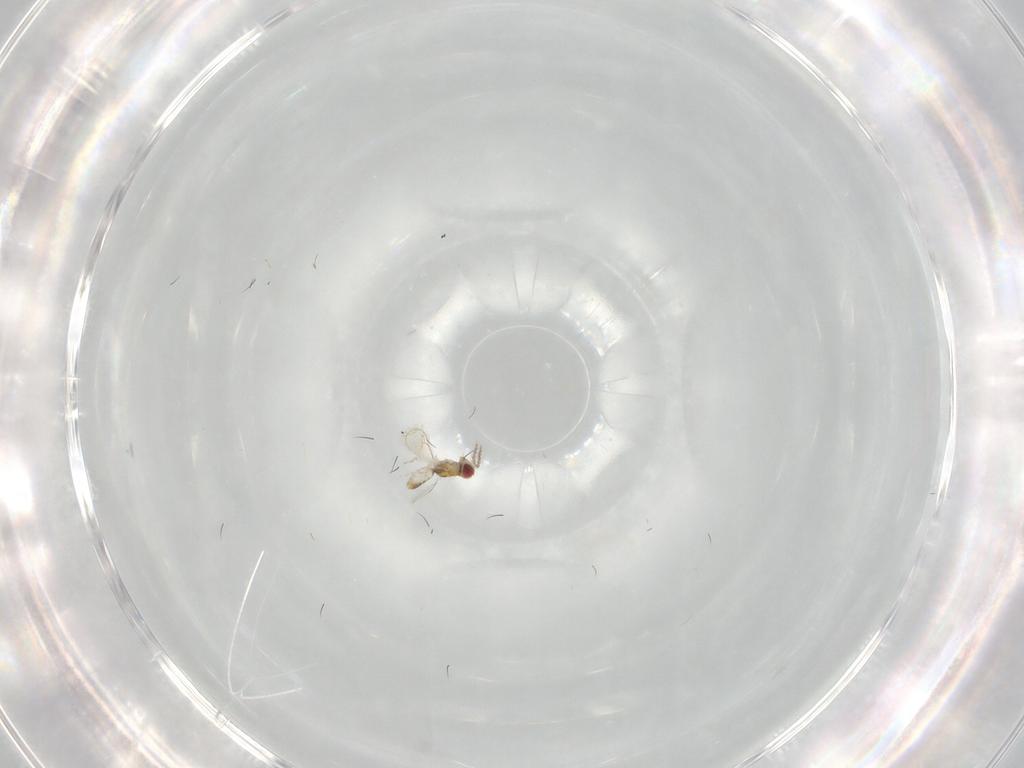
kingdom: Animalia
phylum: Arthropoda
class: Insecta
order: Hymenoptera
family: Eulophidae
